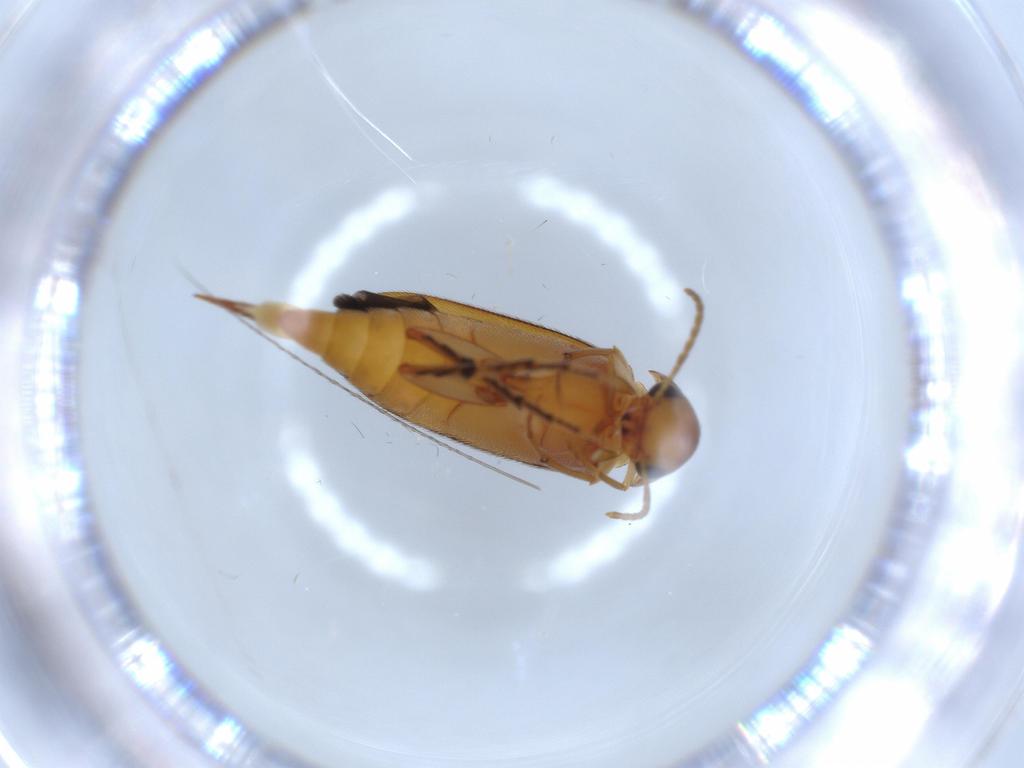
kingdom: Animalia
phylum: Arthropoda
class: Insecta
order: Coleoptera
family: Mordellidae
